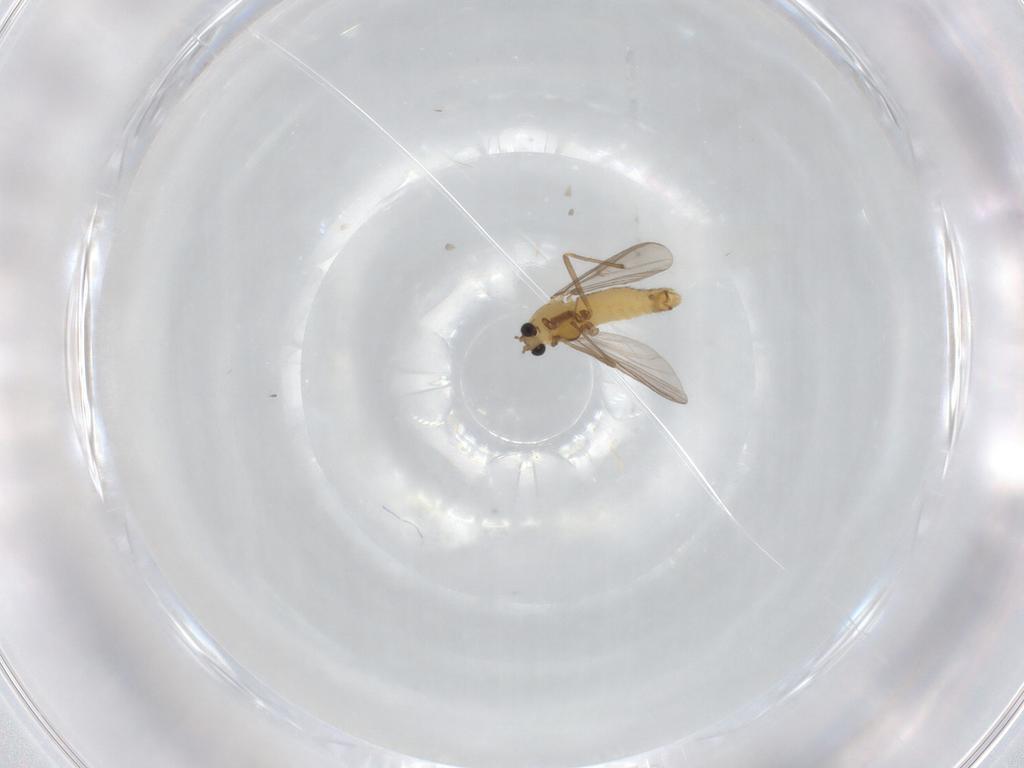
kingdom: Animalia
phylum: Arthropoda
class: Insecta
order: Diptera
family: Chironomidae
